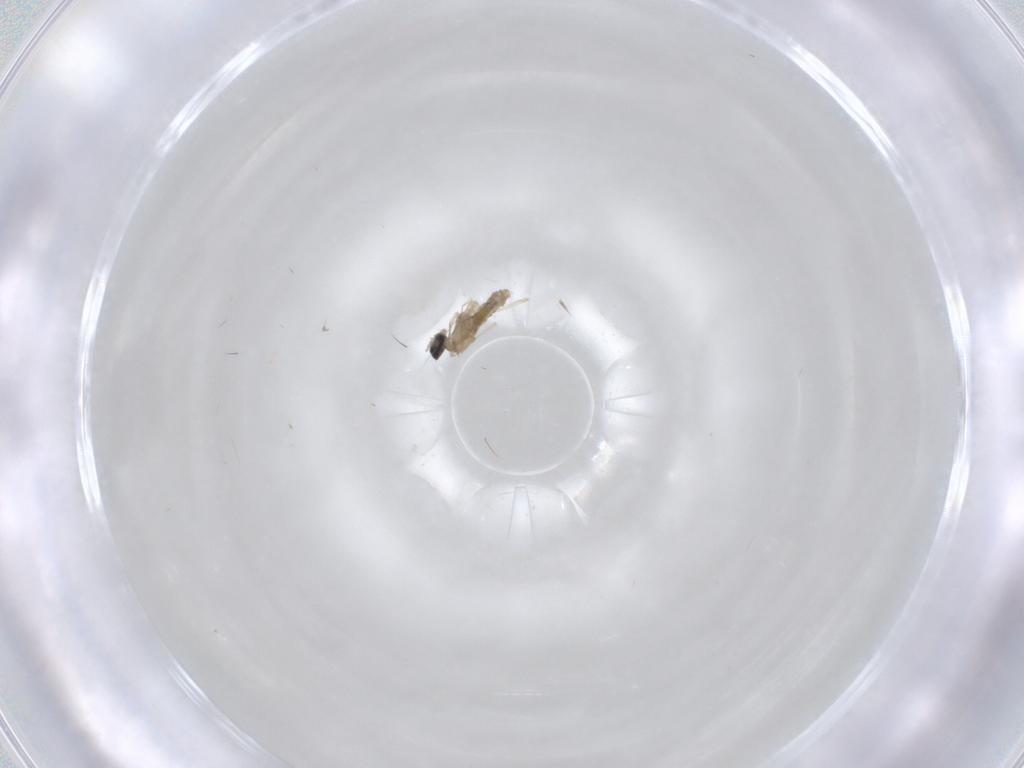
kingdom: Animalia
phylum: Arthropoda
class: Insecta
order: Diptera
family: Cecidomyiidae
